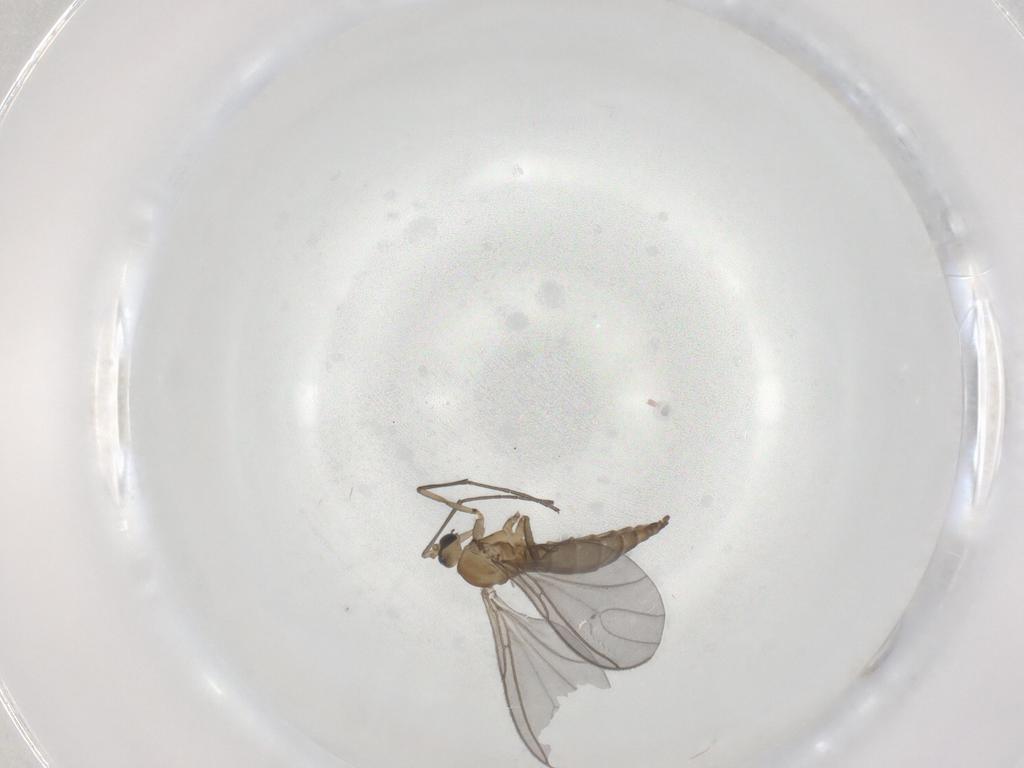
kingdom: Animalia
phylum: Arthropoda
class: Insecta
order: Diptera
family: Sciaridae
